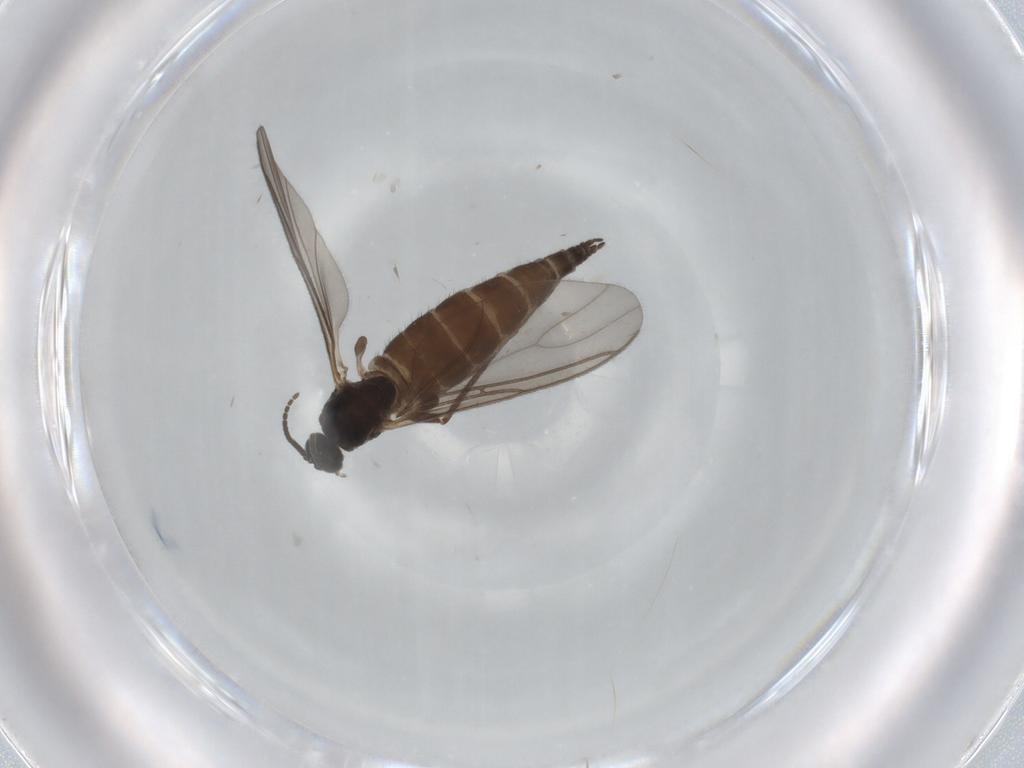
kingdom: Animalia
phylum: Arthropoda
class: Insecta
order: Diptera
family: Sciaridae
